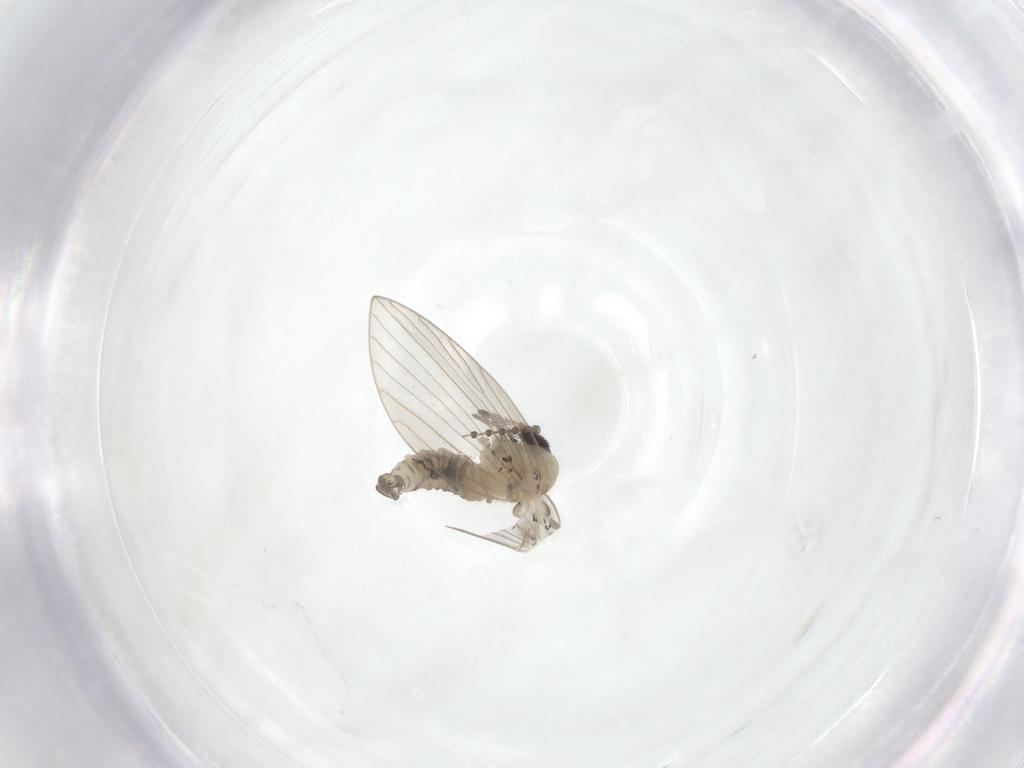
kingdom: Animalia
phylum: Arthropoda
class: Insecta
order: Diptera
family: Psychodidae
